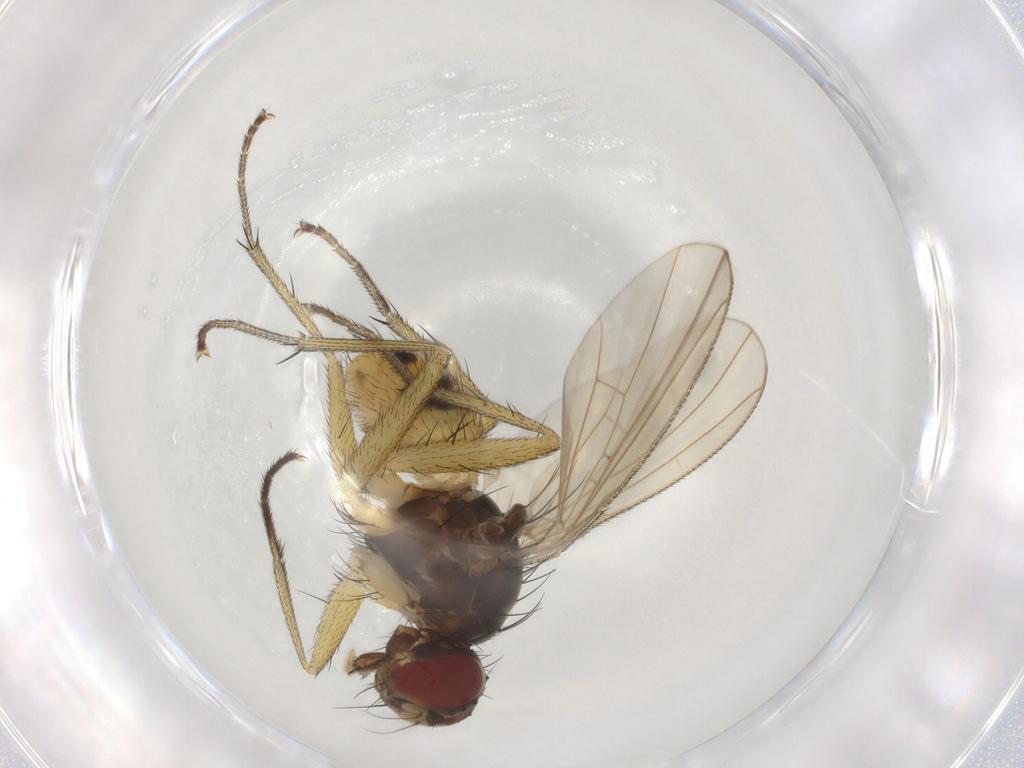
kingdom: Animalia
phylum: Arthropoda
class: Insecta
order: Diptera
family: Muscidae
